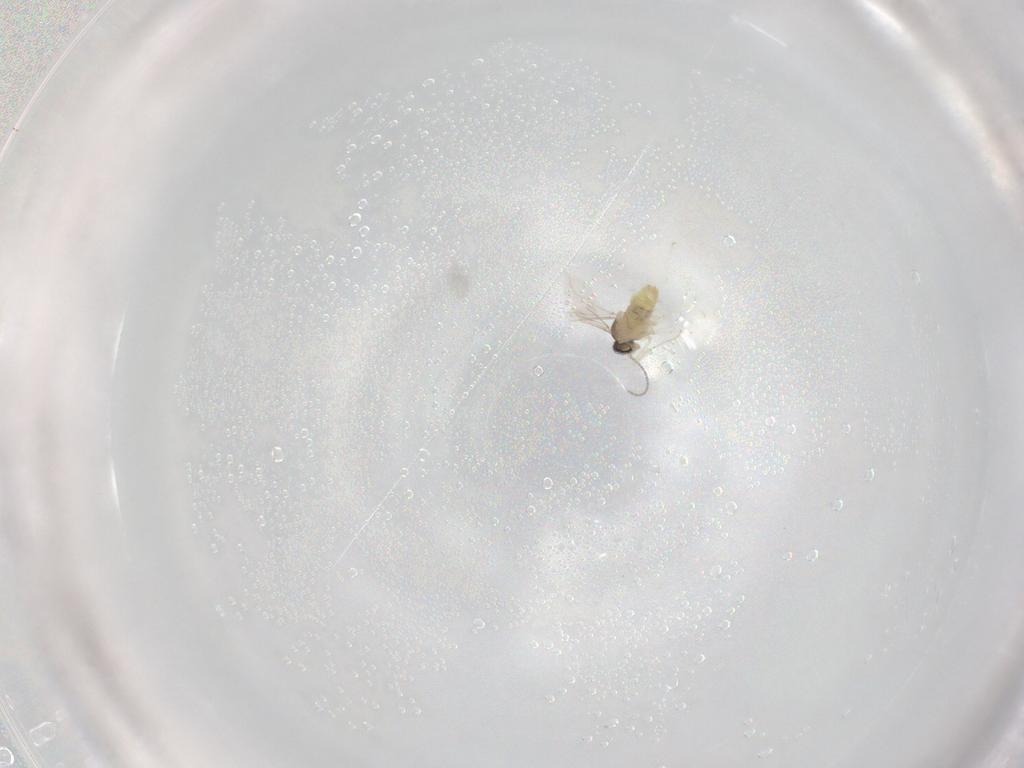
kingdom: Animalia
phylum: Arthropoda
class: Insecta
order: Diptera
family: Cecidomyiidae
